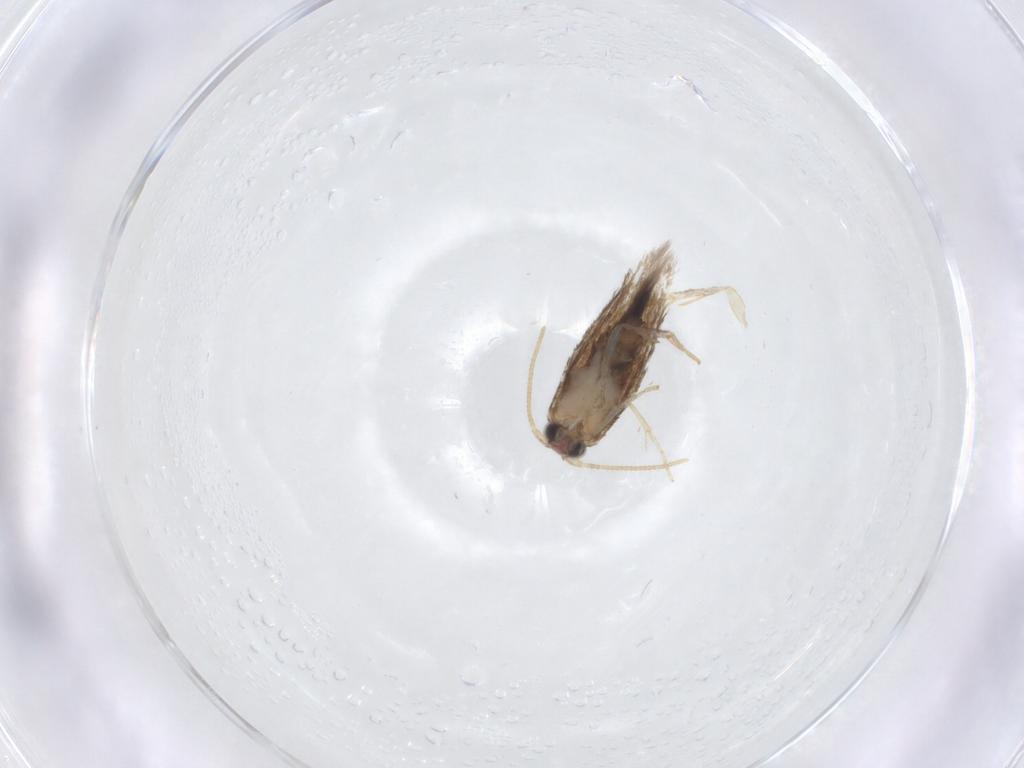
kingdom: Animalia
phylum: Arthropoda
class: Insecta
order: Lepidoptera
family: Nepticulidae
